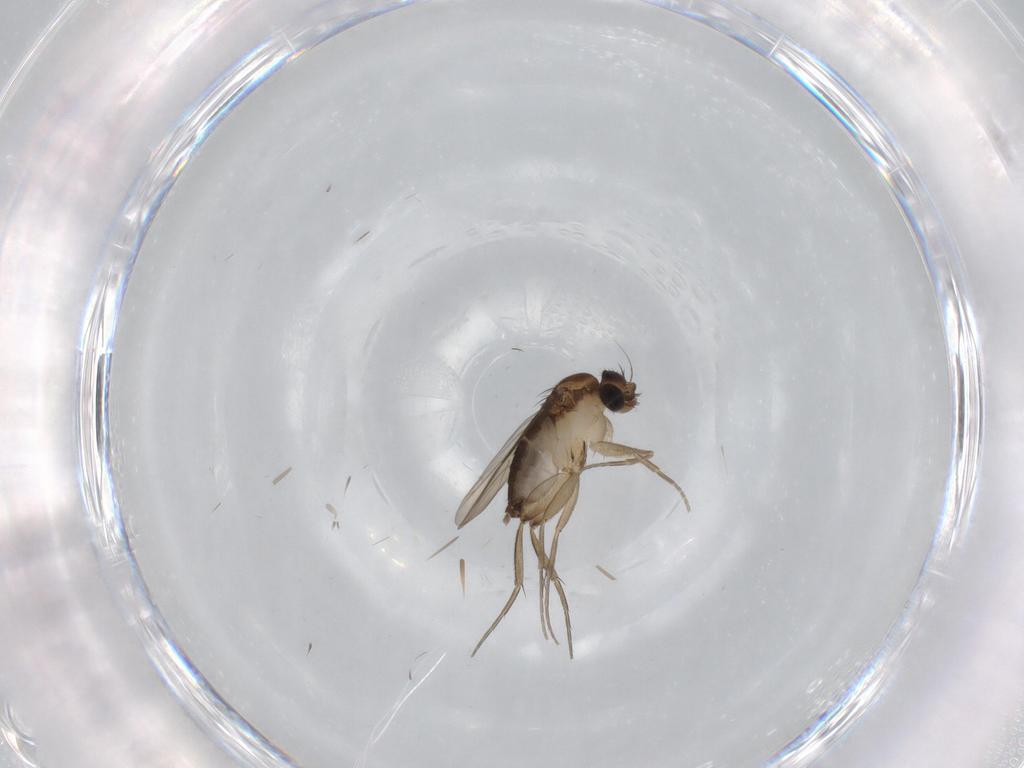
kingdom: Animalia
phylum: Arthropoda
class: Insecta
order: Diptera
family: Phoridae
